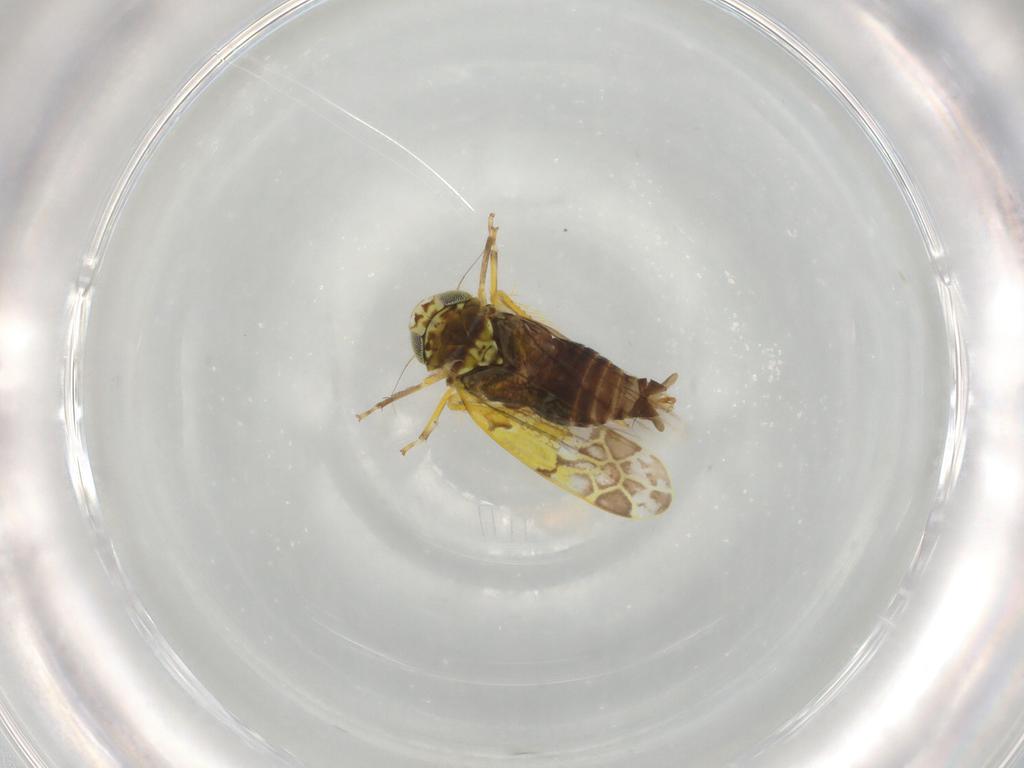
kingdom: Animalia
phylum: Arthropoda
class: Insecta
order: Hemiptera
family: Cicadellidae
